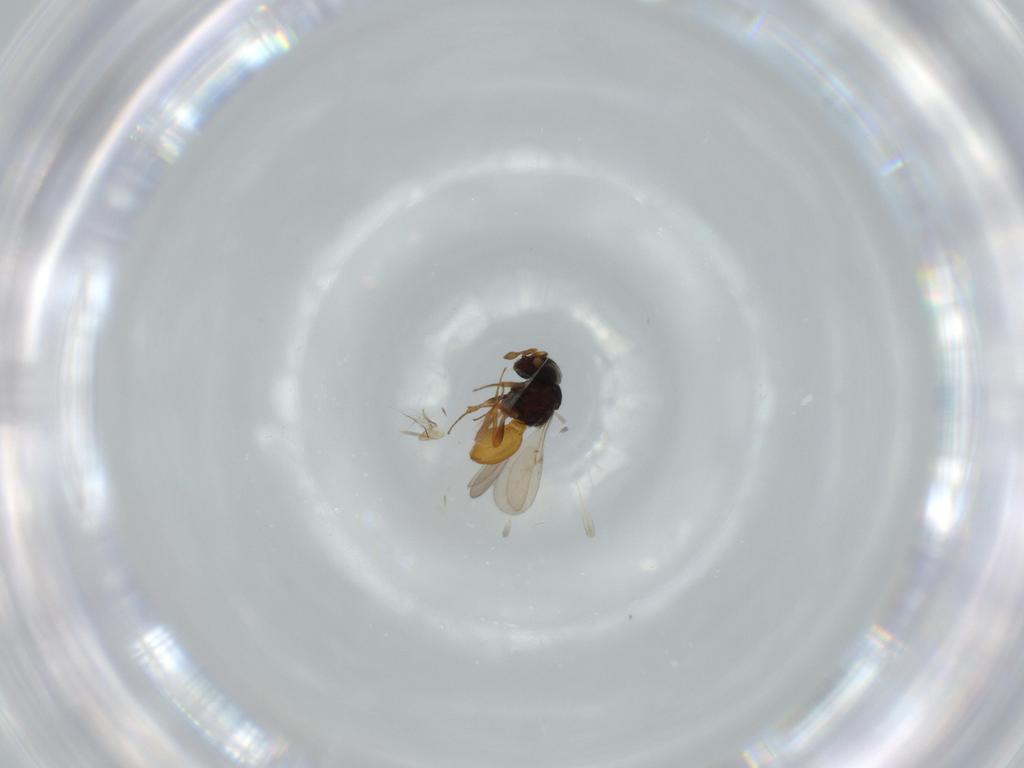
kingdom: Animalia
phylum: Arthropoda
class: Insecta
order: Hymenoptera
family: Scelionidae
